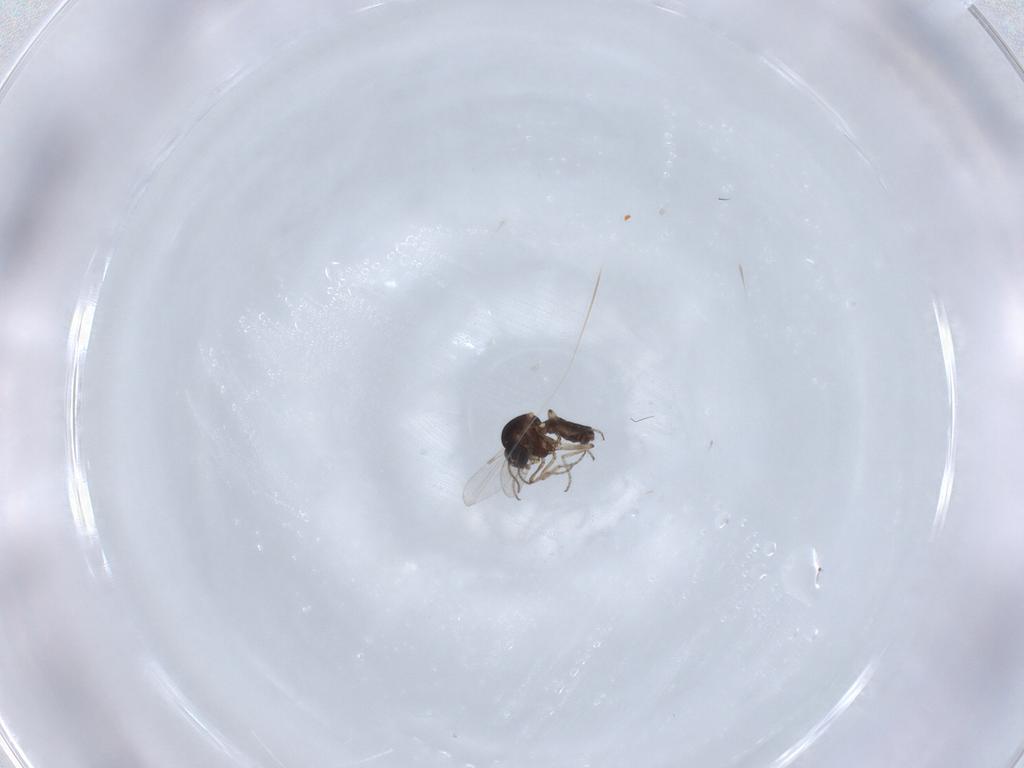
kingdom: Animalia
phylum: Arthropoda
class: Insecta
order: Diptera
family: Ceratopogonidae
